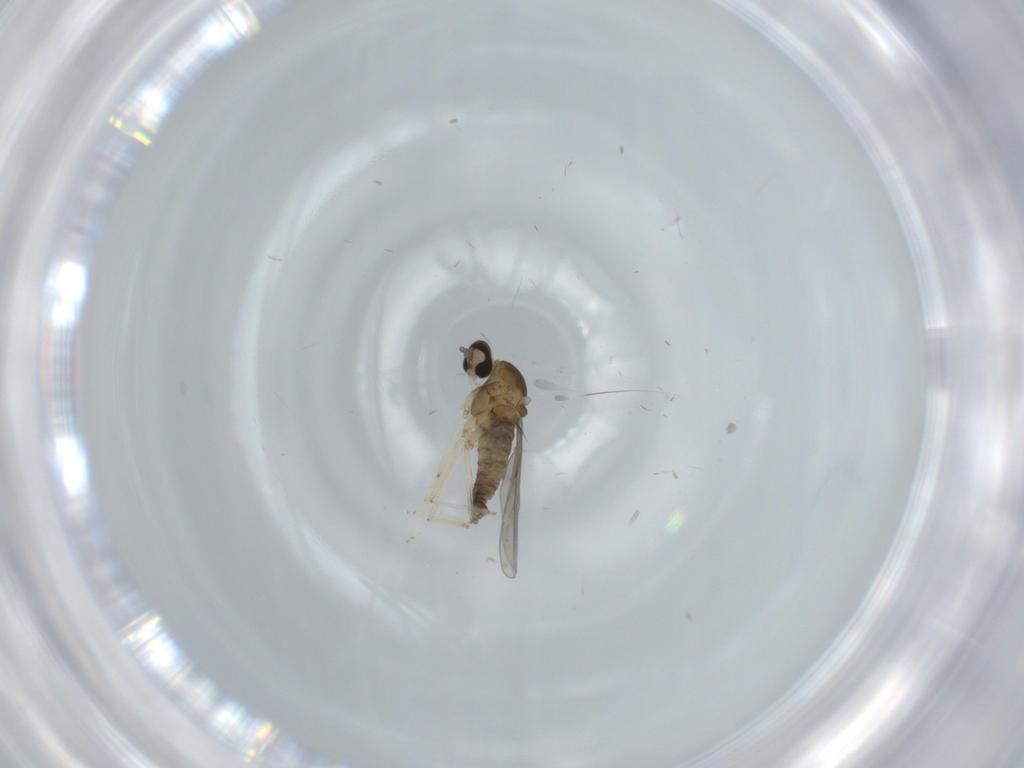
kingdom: Animalia
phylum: Arthropoda
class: Insecta
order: Diptera
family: Cecidomyiidae
